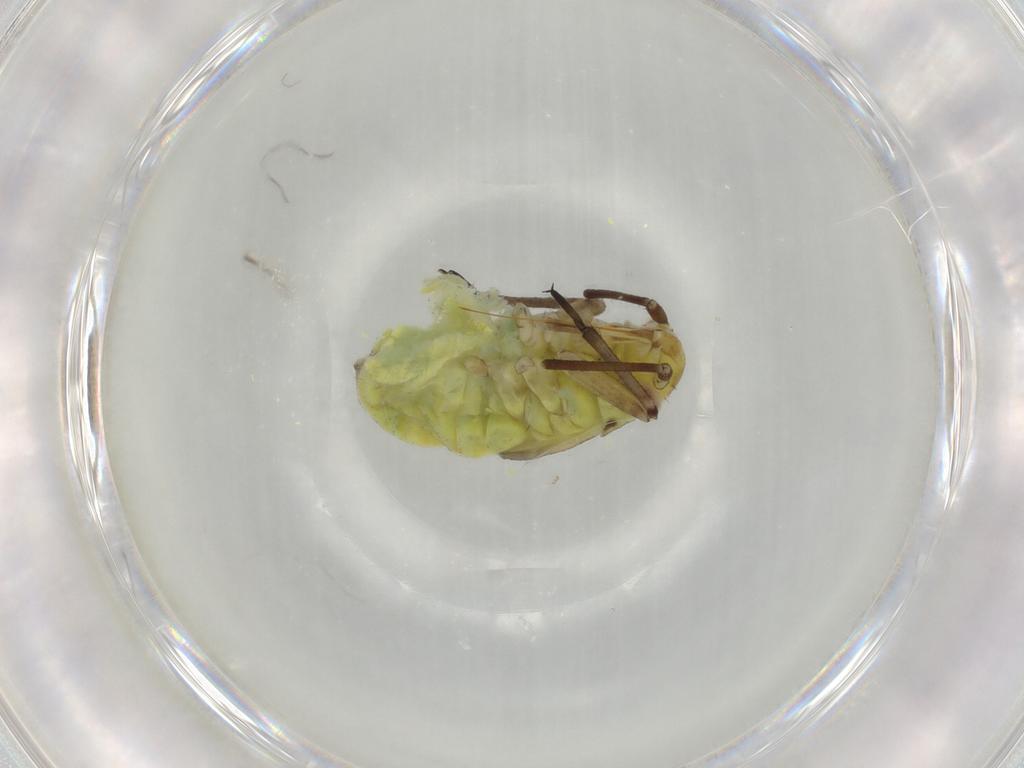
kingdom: Animalia
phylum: Arthropoda
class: Insecta
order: Hemiptera
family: Miridae
